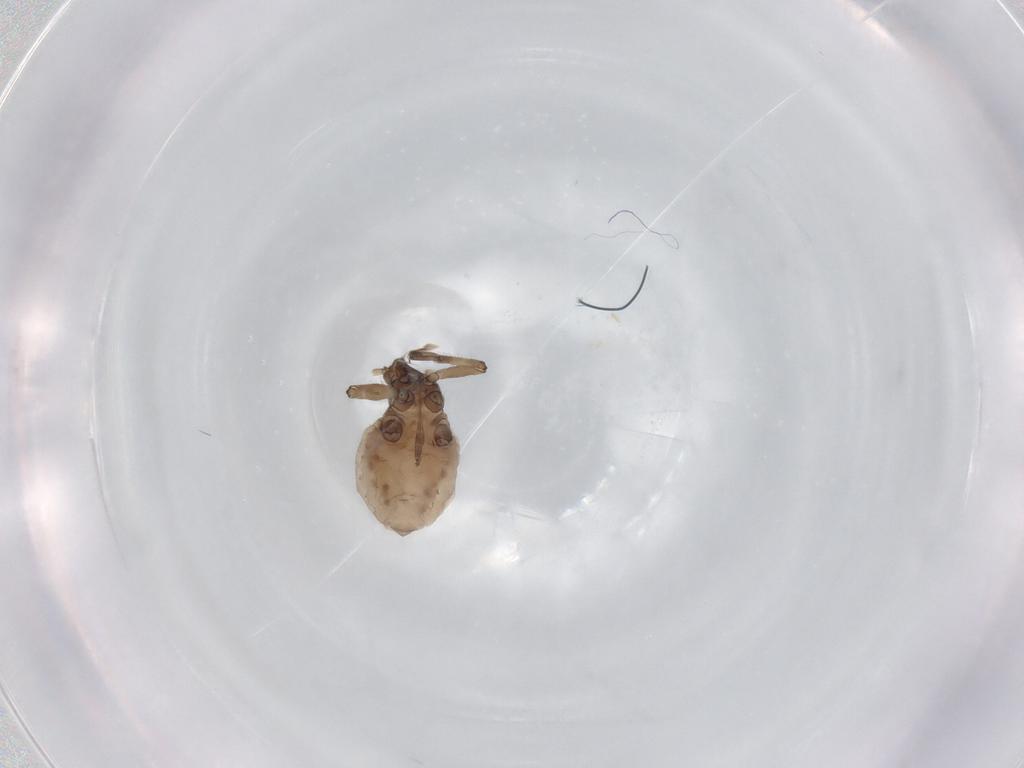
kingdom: Animalia
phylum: Arthropoda
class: Insecta
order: Hemiptera
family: Aphididae
